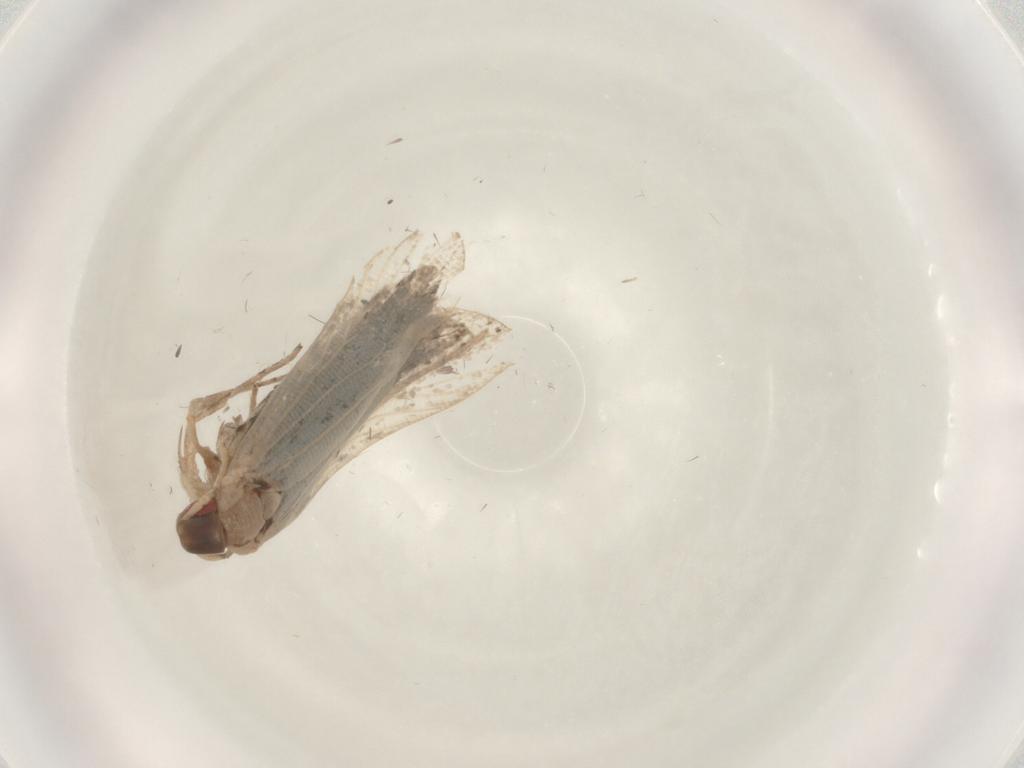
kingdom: Animalia
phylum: Arthropoda
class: Insecta
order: Lepidoptera
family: Gelechiidae
